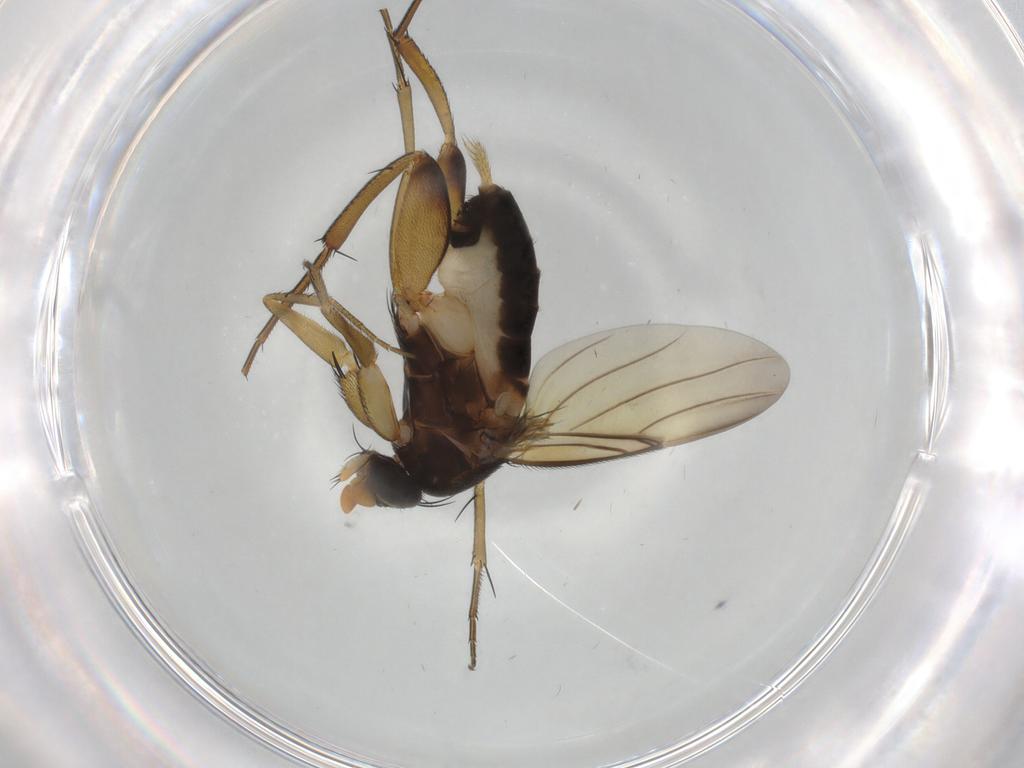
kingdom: Animalia
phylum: Arthropoda
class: Insecta
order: Diptera
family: Phoridae
